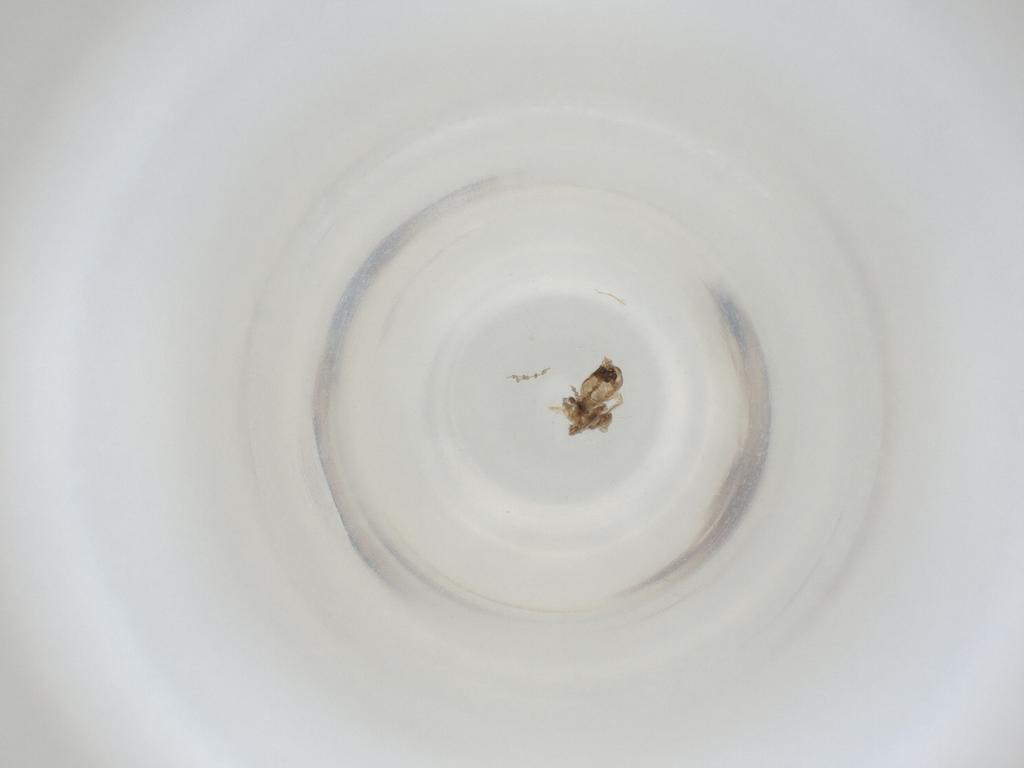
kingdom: Animalia
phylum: Arthropoda
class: Insecta
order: Diptera
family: Cecidomyiidae
